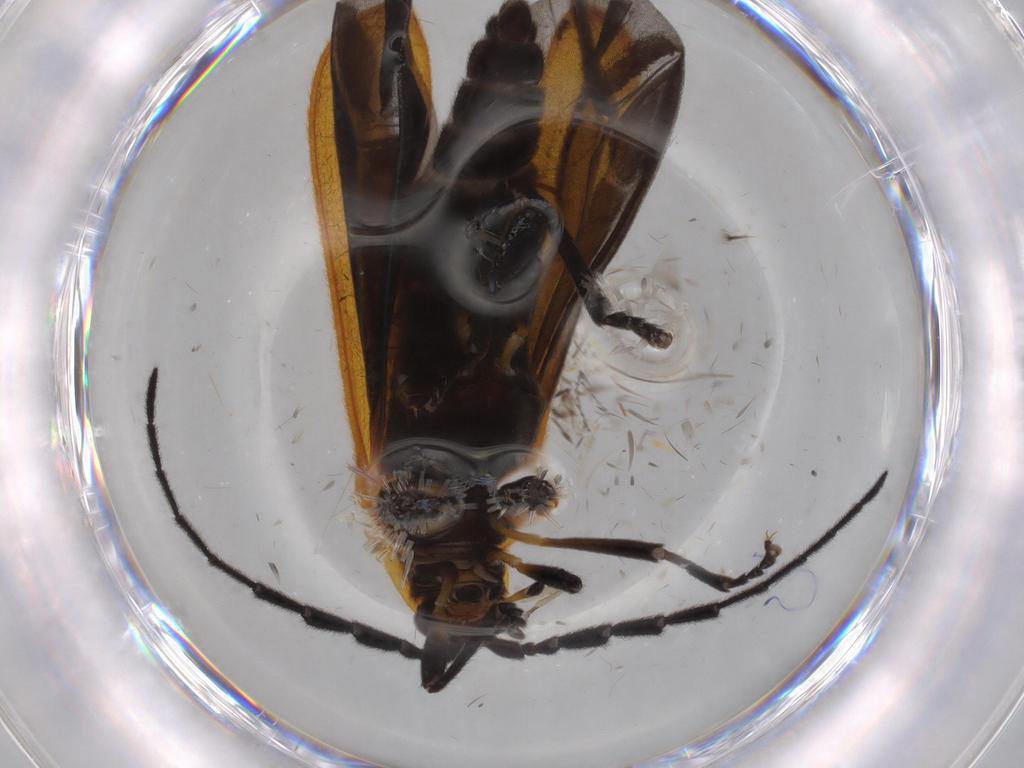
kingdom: Animalia
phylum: Arthropoda
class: Insecta
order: Coleoptera
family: Lycidae
